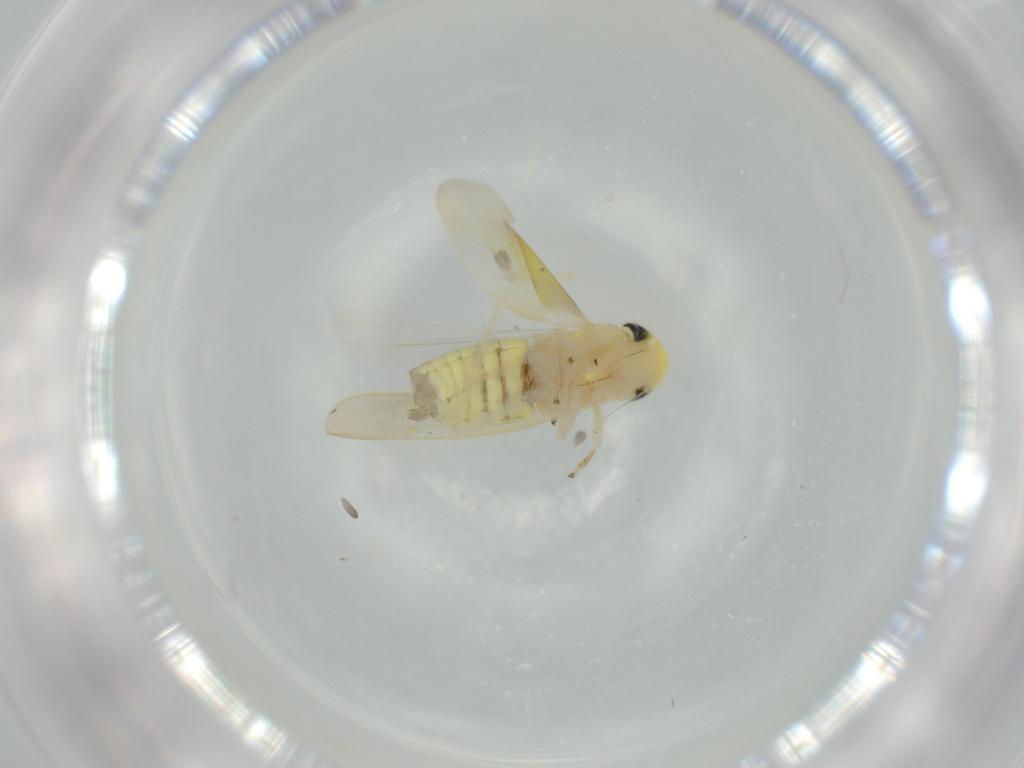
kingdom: Animalia
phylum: Arthropoda
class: Insecta
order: Hemiptera
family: Cicadellidae
